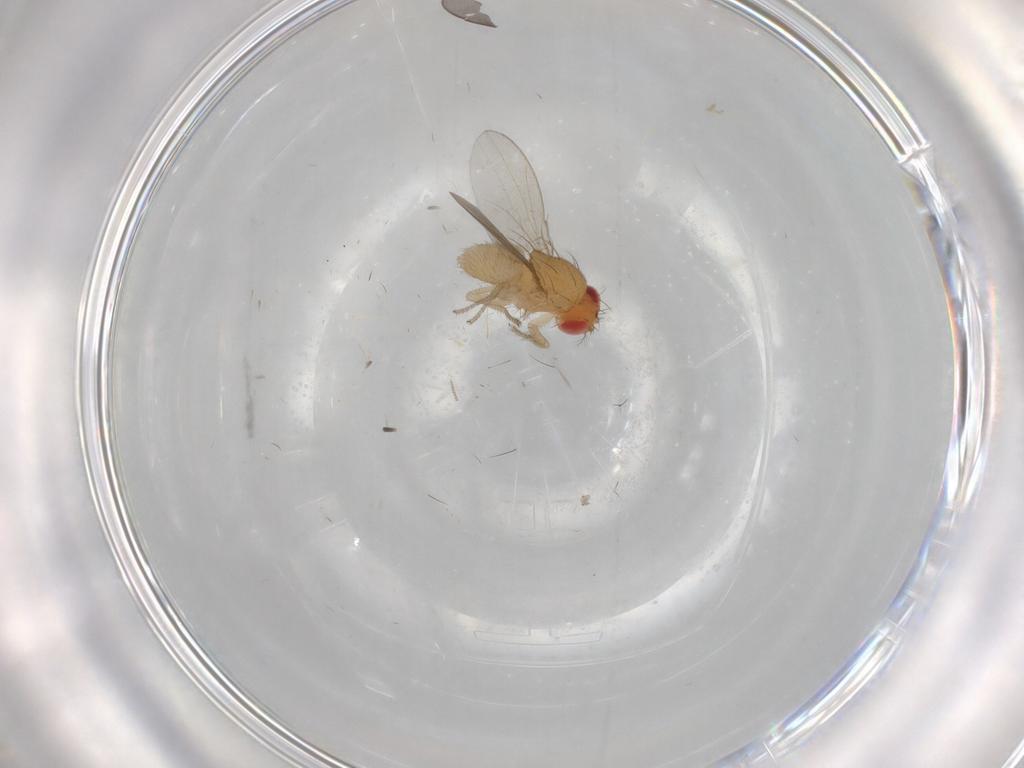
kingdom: Animalia
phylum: Arthropoda
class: Insecta
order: Diptera
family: Drosophilidae
